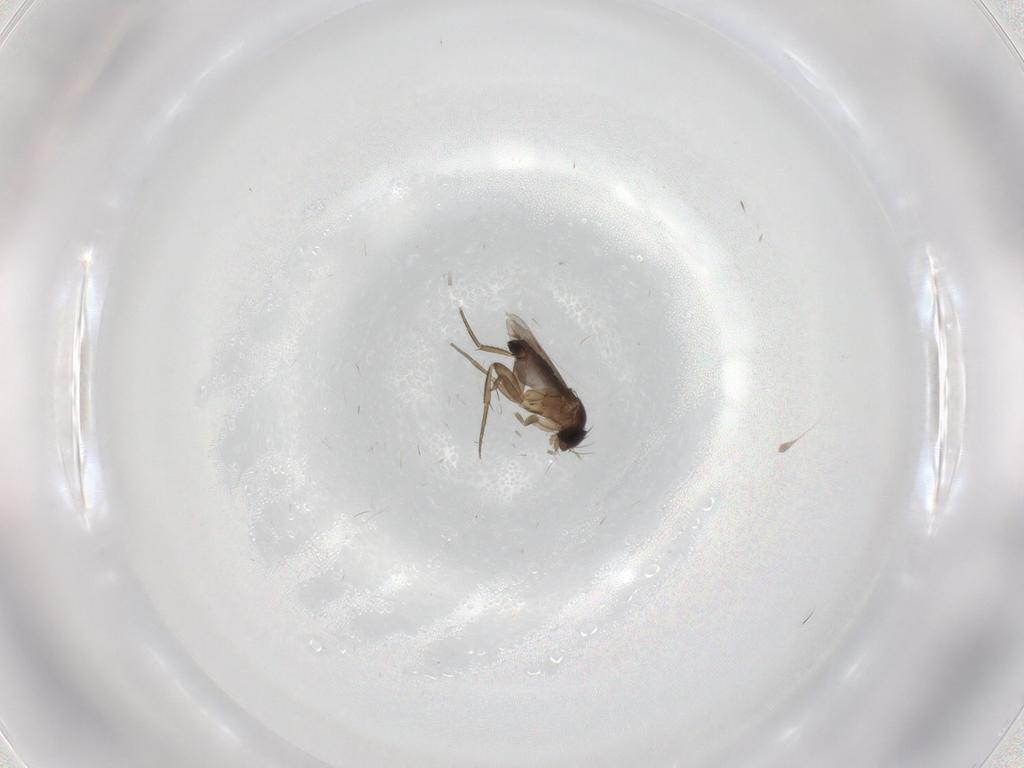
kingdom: Animalia
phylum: Arthropoda
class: Insecta
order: Diptera
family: Phoridae
